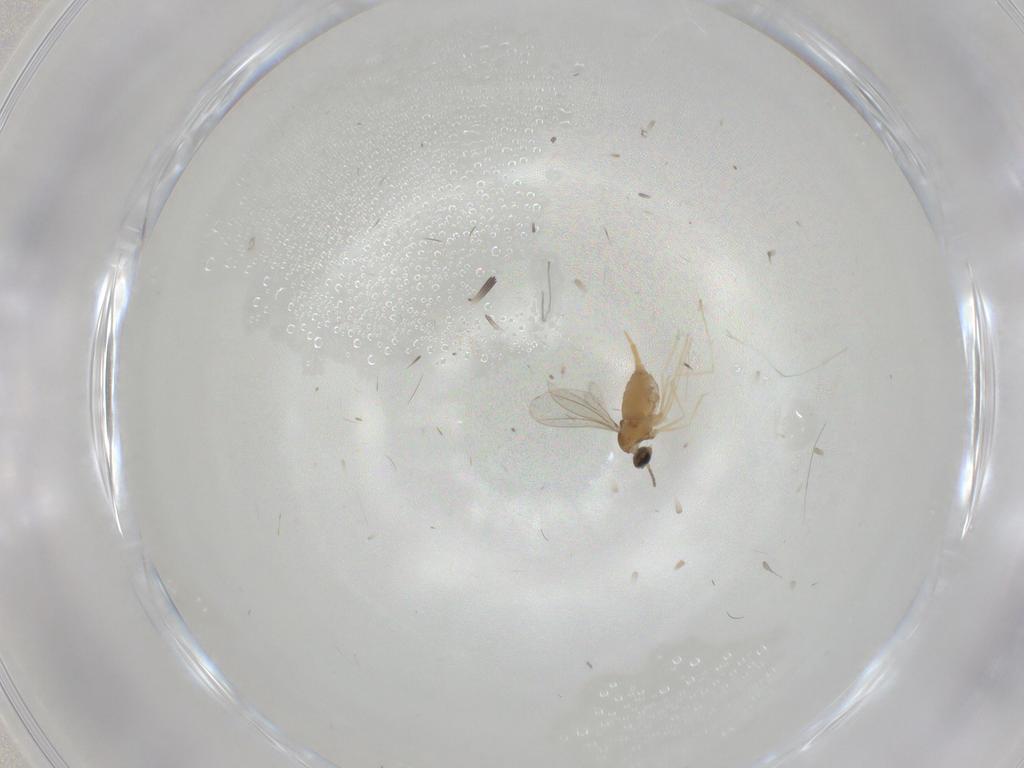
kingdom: Animalia
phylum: Arthropoda
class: Insecta
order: Diptera
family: Cecidomyiidae
